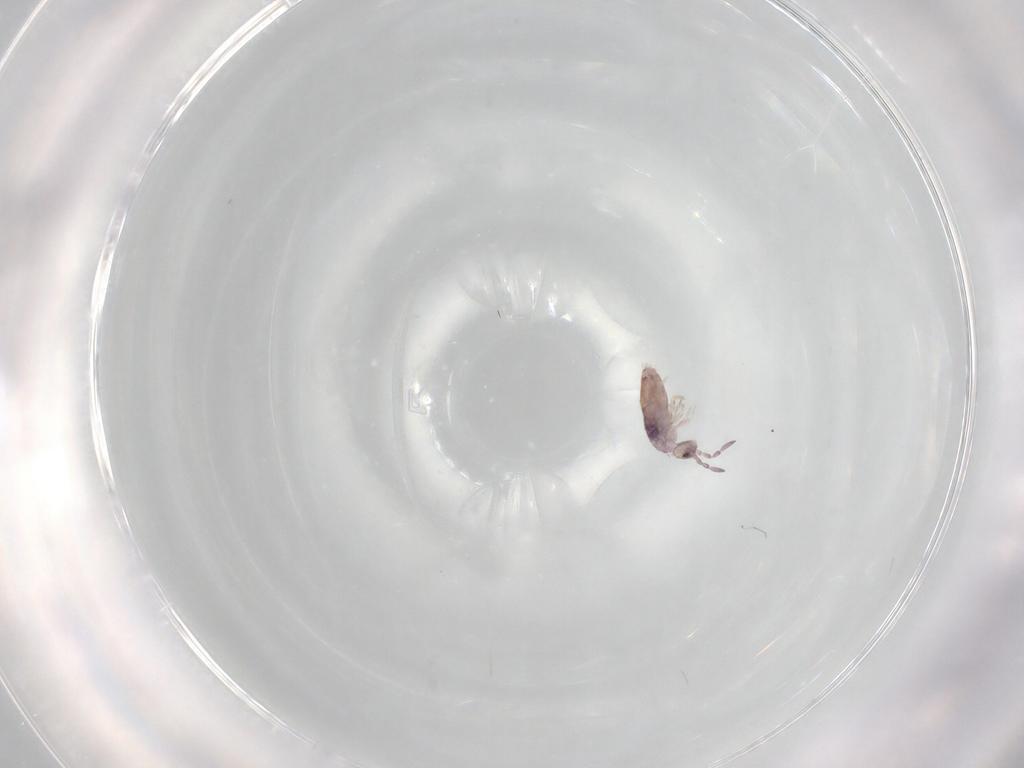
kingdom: Animalia
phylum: Arthropoda
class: Collembola
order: Entomobryomorpha
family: Entomobryidae
